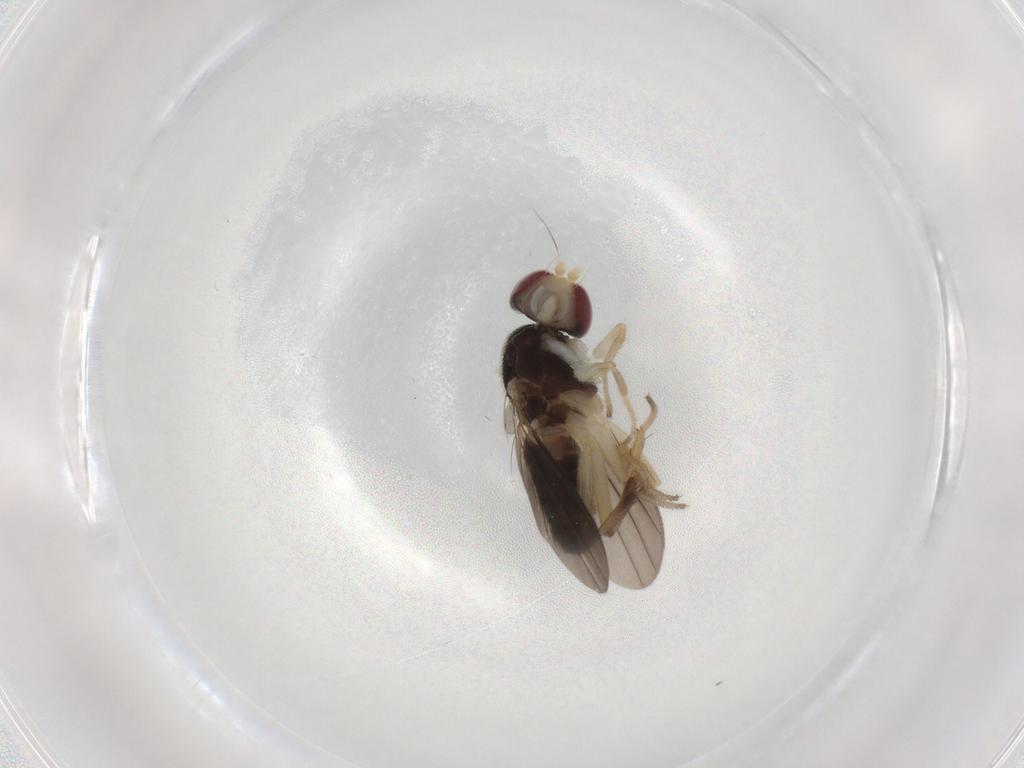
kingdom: Animalia
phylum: Arthropoda
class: Insecta
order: Diptera
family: Clusiidae
